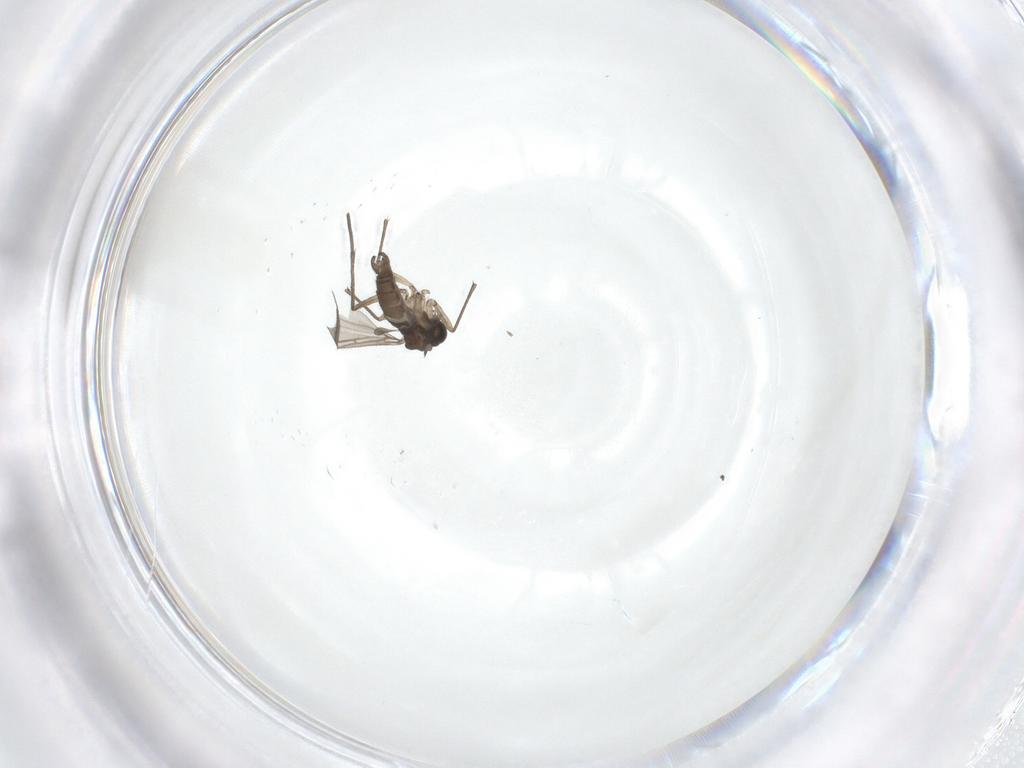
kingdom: Animalia
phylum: Arthropoda
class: Insecta
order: Diptera
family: Sciaridae
